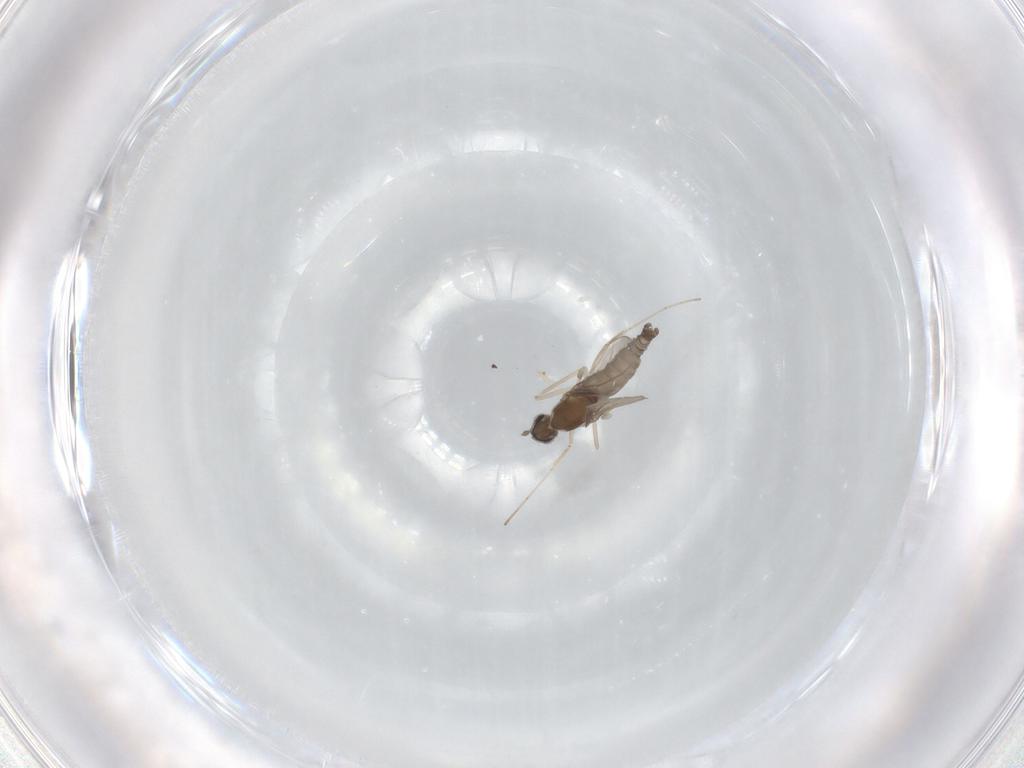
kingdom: Animalia
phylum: Arthropoda
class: Insecta
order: Diptera
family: Cecidomyiidae
